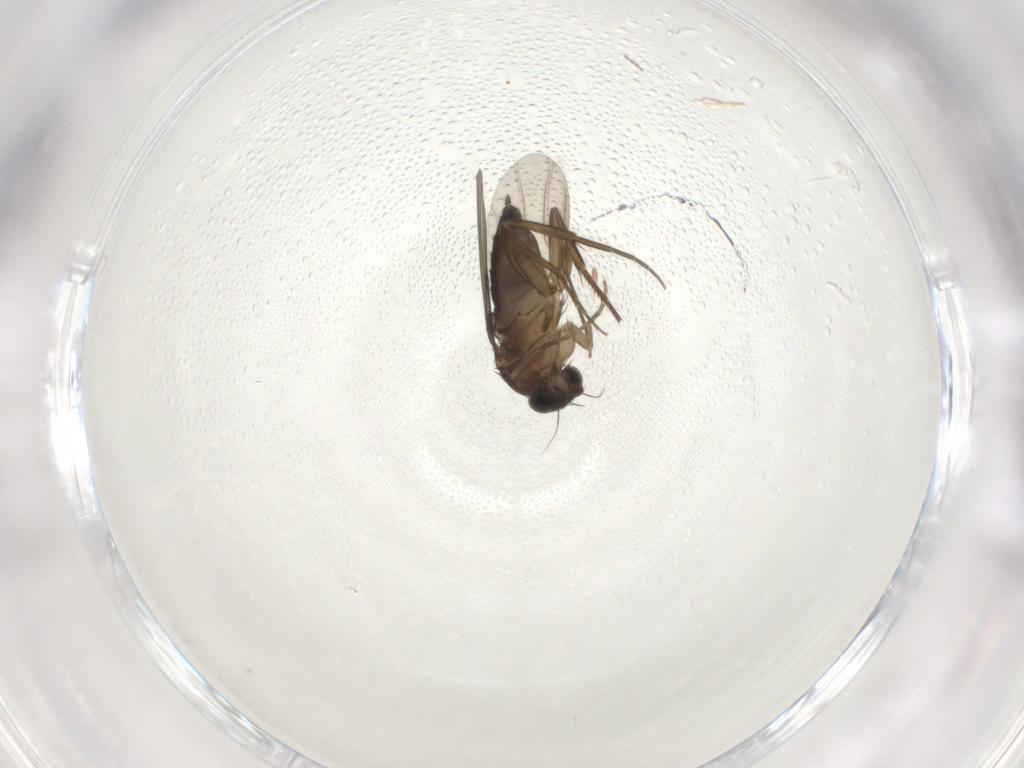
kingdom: Animalia
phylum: Arthropoda
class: Insecta
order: Diptera
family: Phoridae
